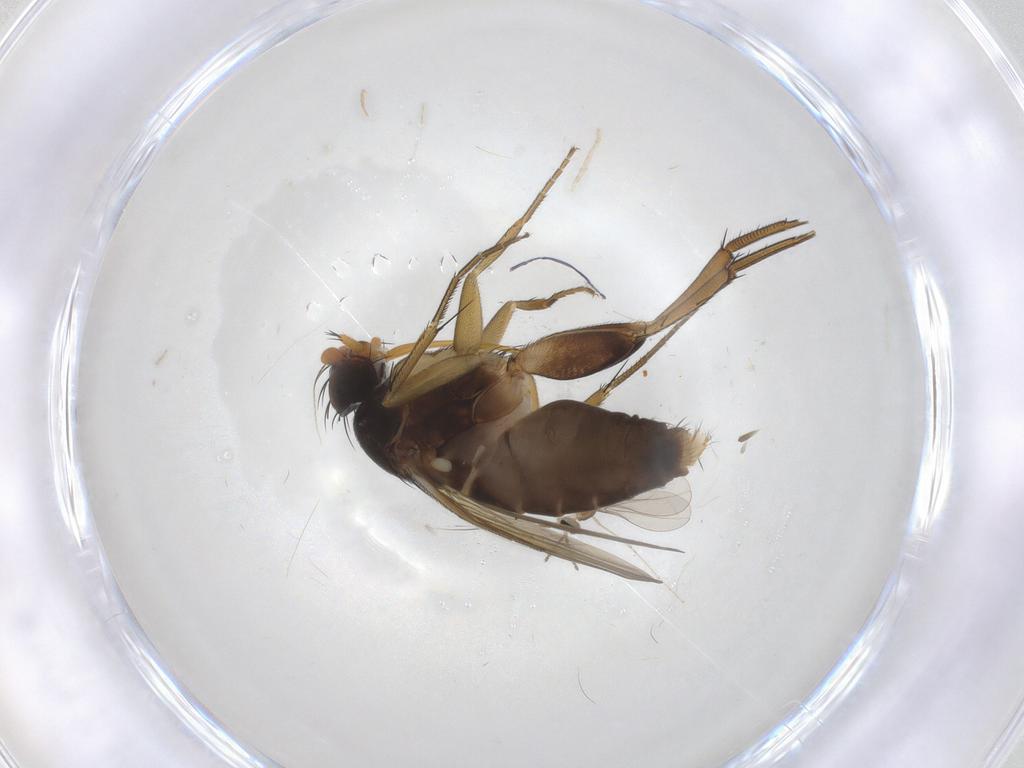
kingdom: Animalia
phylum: Arthropoda
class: Insecta
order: Diptera
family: Phoridae
